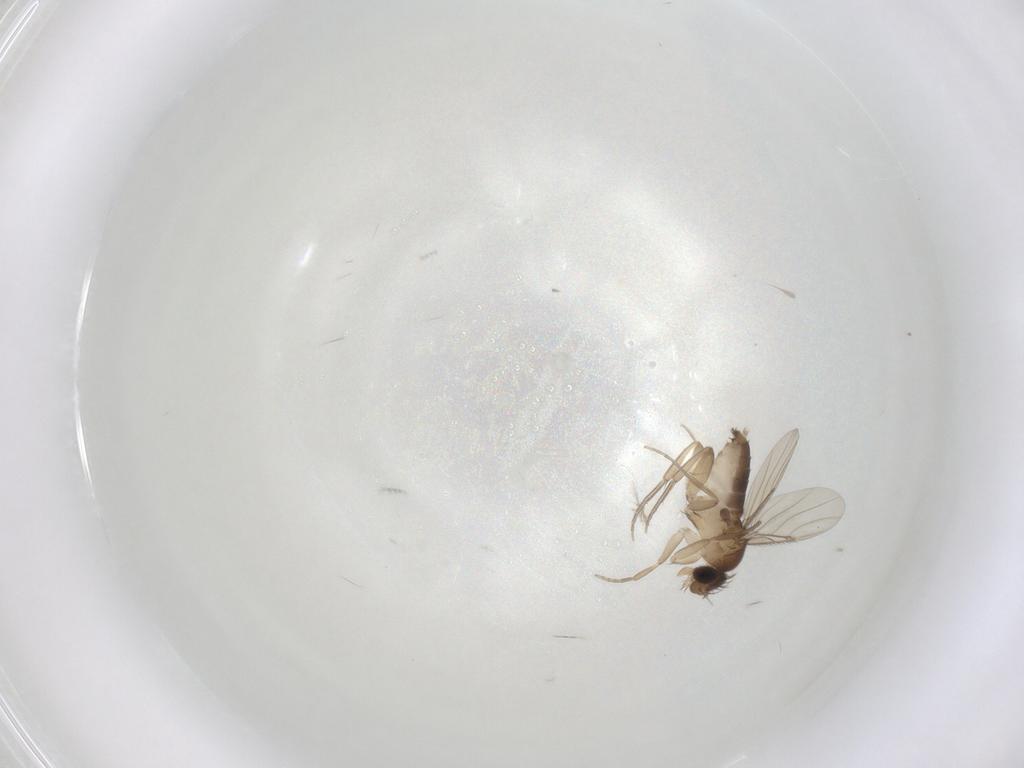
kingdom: Animalia
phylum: Arthropoda
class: Insecta
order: Diptera
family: Phoridae
